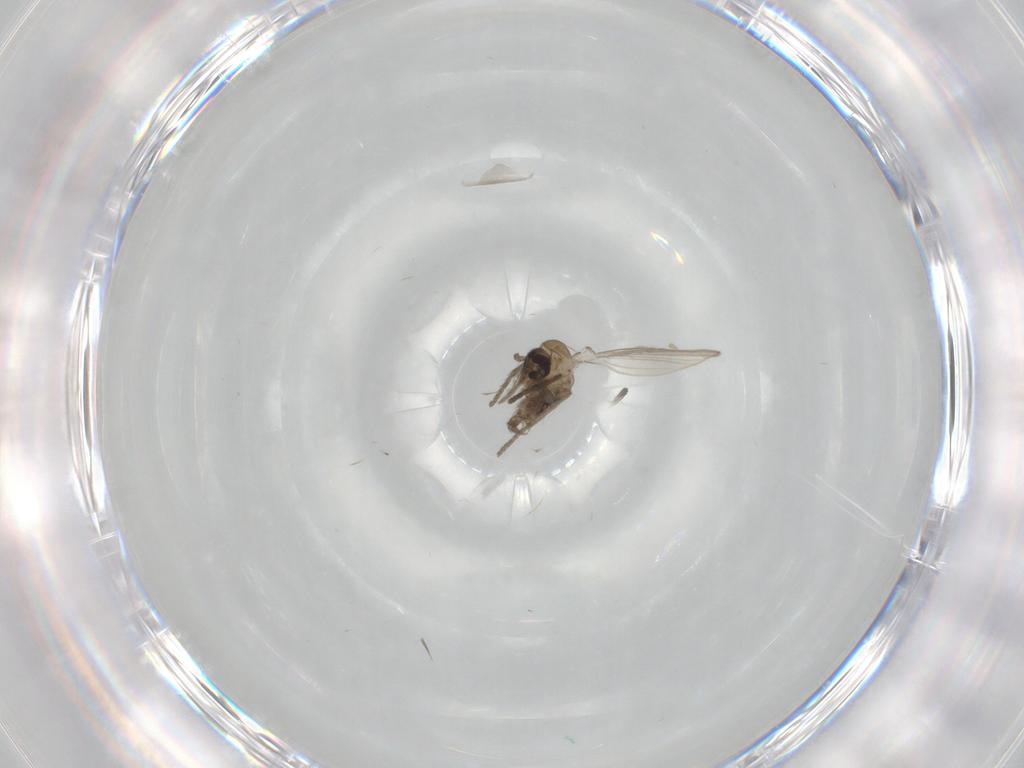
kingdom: Animalia
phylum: Arthropoda
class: Insecta
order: Diptera
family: Psychodidae
